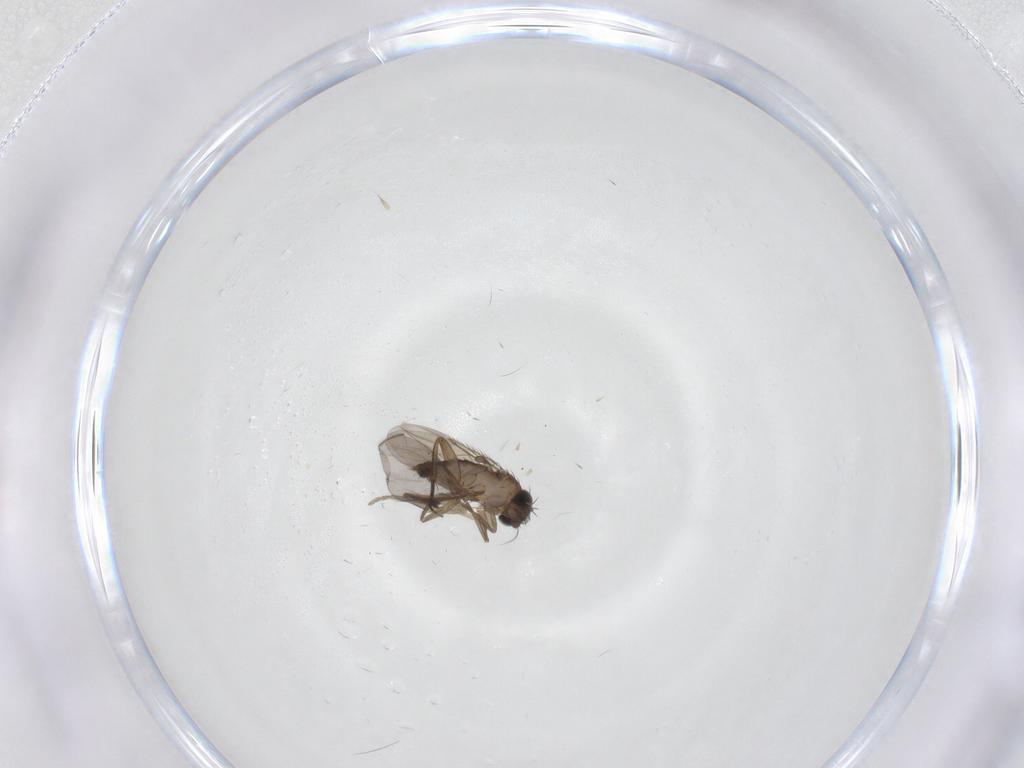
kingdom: Animalia
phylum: Arthropoda
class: Insecta
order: Diptera
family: Phoridae
